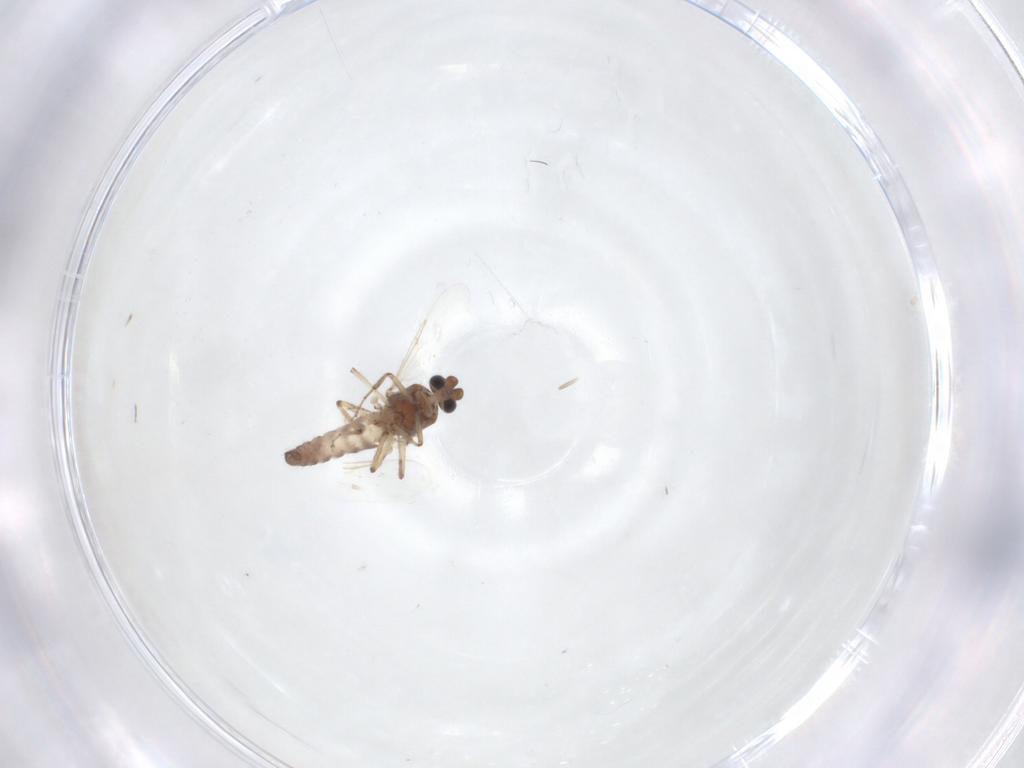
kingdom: Animalia
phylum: Arthropoda
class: Insecta
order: Diptera
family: Ceratopogonidae
